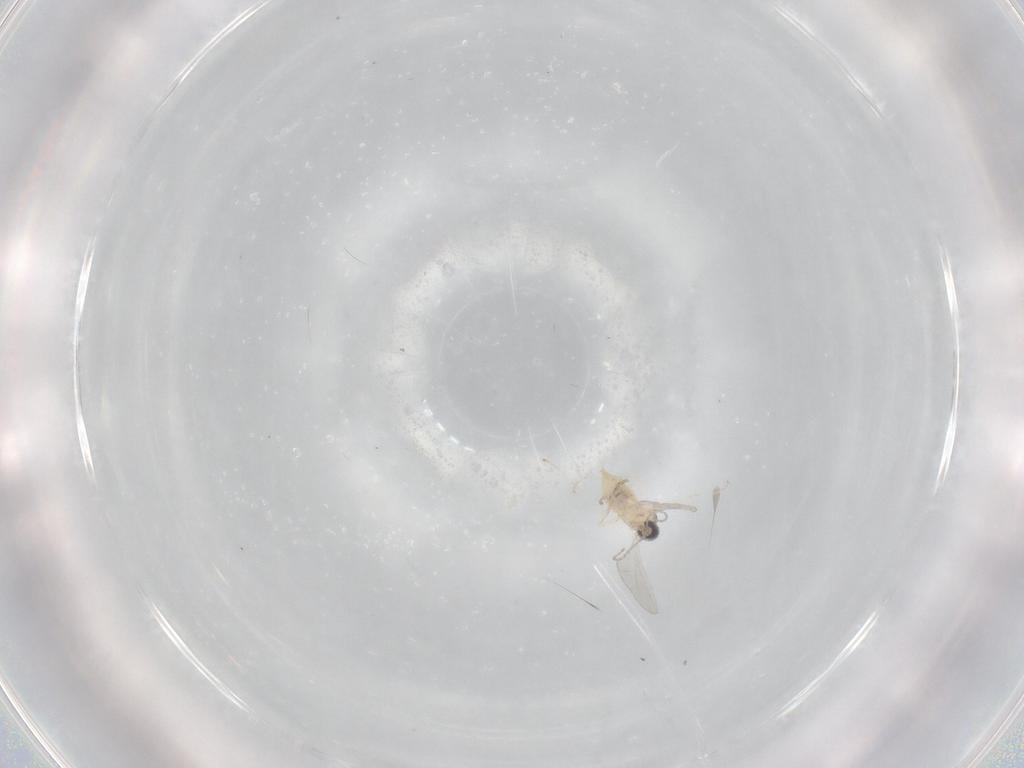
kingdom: Animalia
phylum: Arthropoda
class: Insecta
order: Diptera
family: Cecidomyiidae
